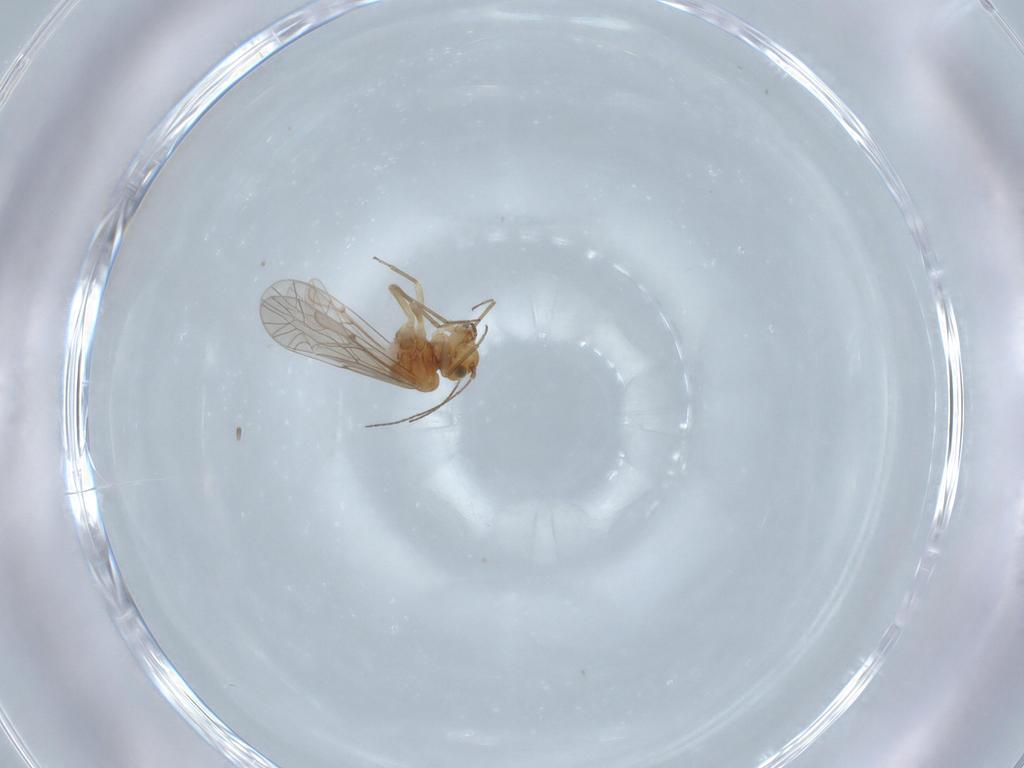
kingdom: Animalia
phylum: Arthropoda
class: Insecta
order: Psocodea
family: Lachesillidae
